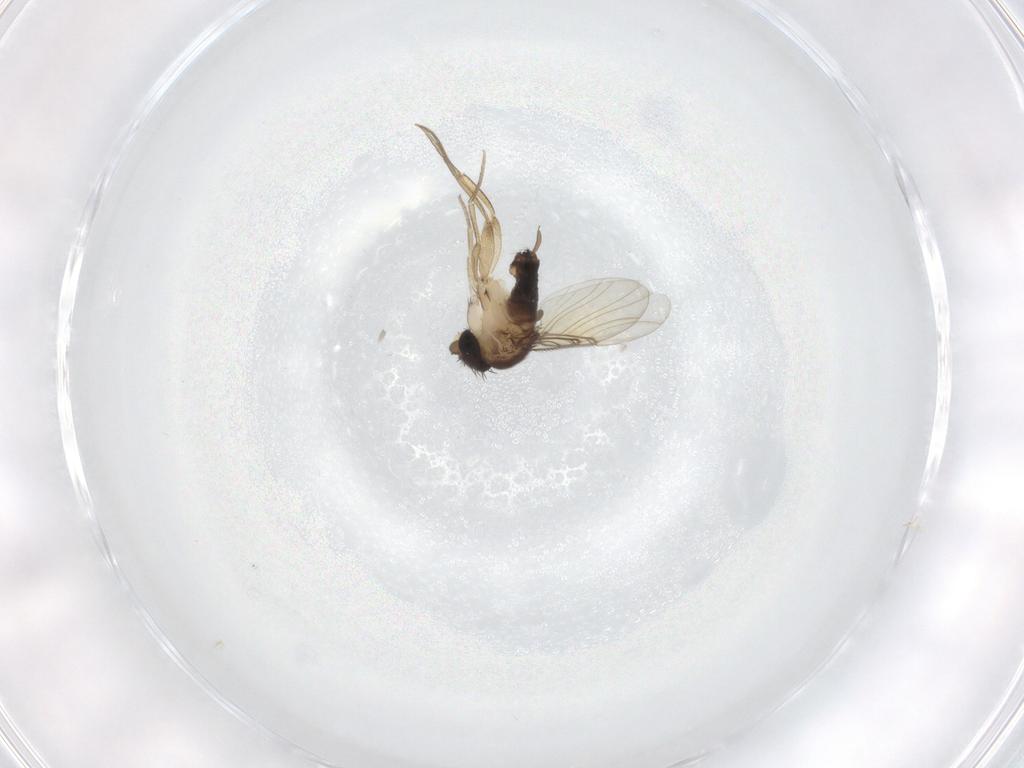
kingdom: Animalia
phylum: Arthropoda
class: Insecta
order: Diptera
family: Phoridae
